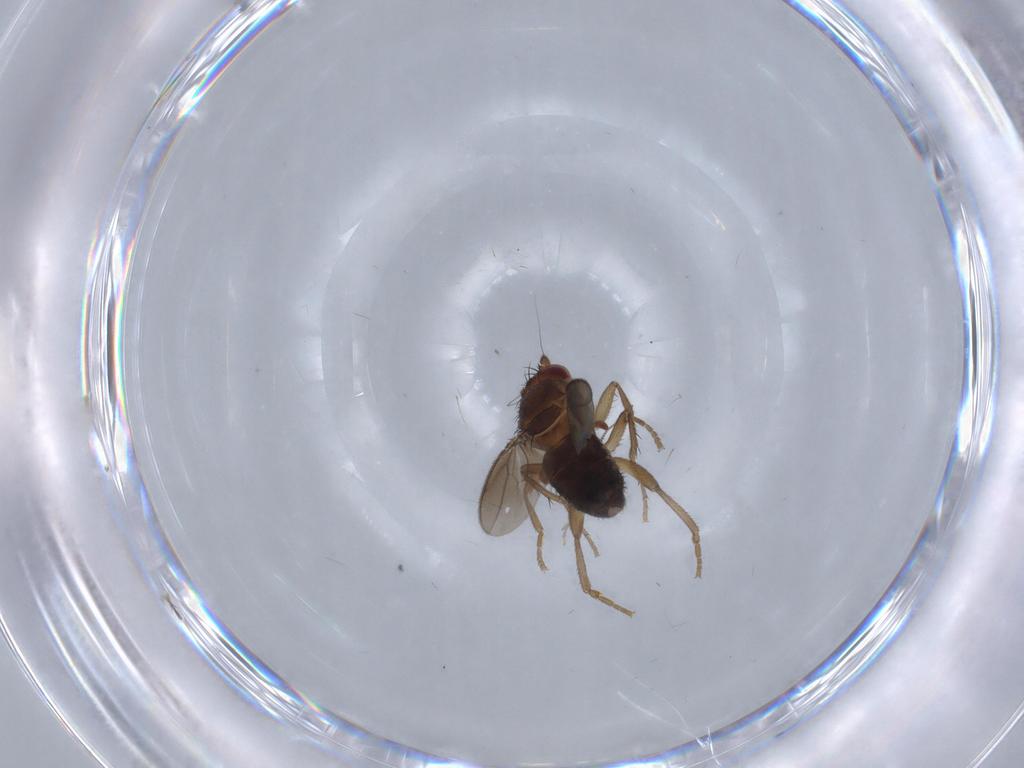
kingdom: Animalia
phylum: Arthropoda
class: Insecta
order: Diptera
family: Sphaeroceridae
